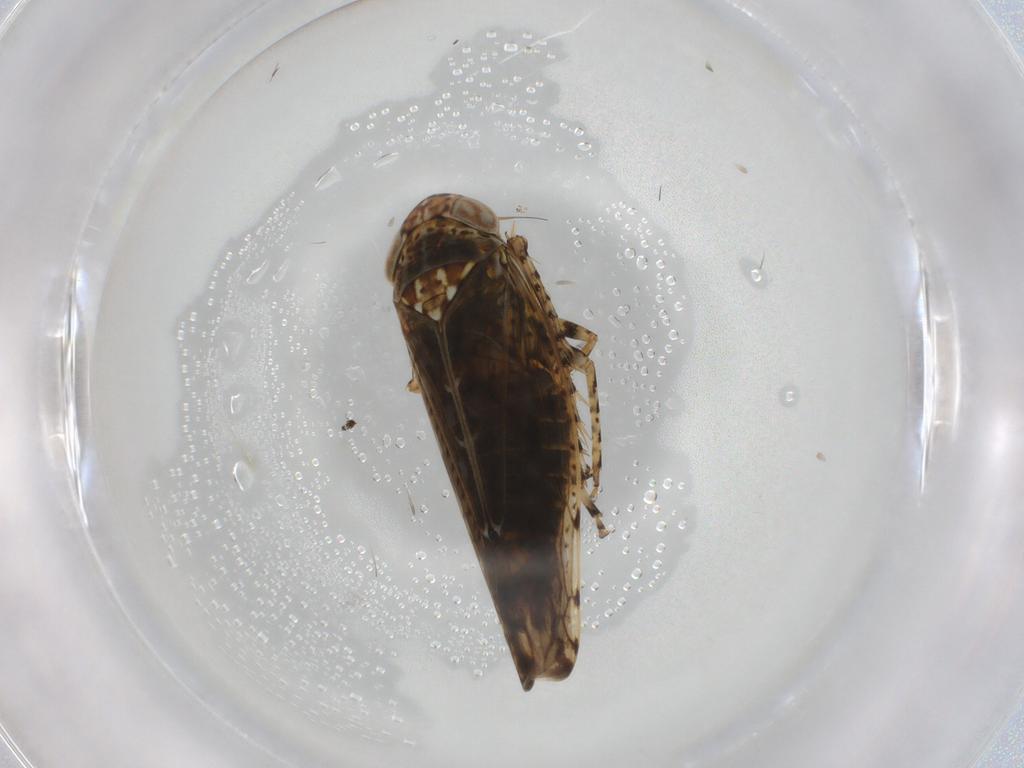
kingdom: Animalia
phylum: Arthropoda
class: Insecta
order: Hemiptera
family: Cicadellidae
